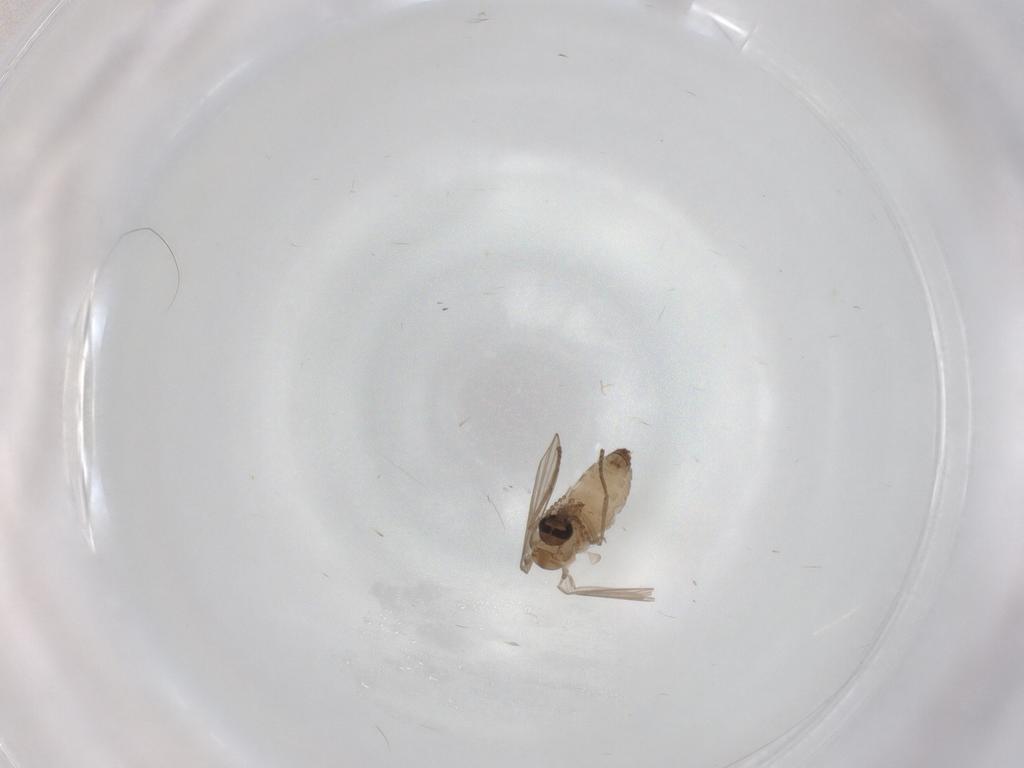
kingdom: Animalia
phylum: Arthropoda
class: Insecta
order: Diptera
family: Psychodidae
